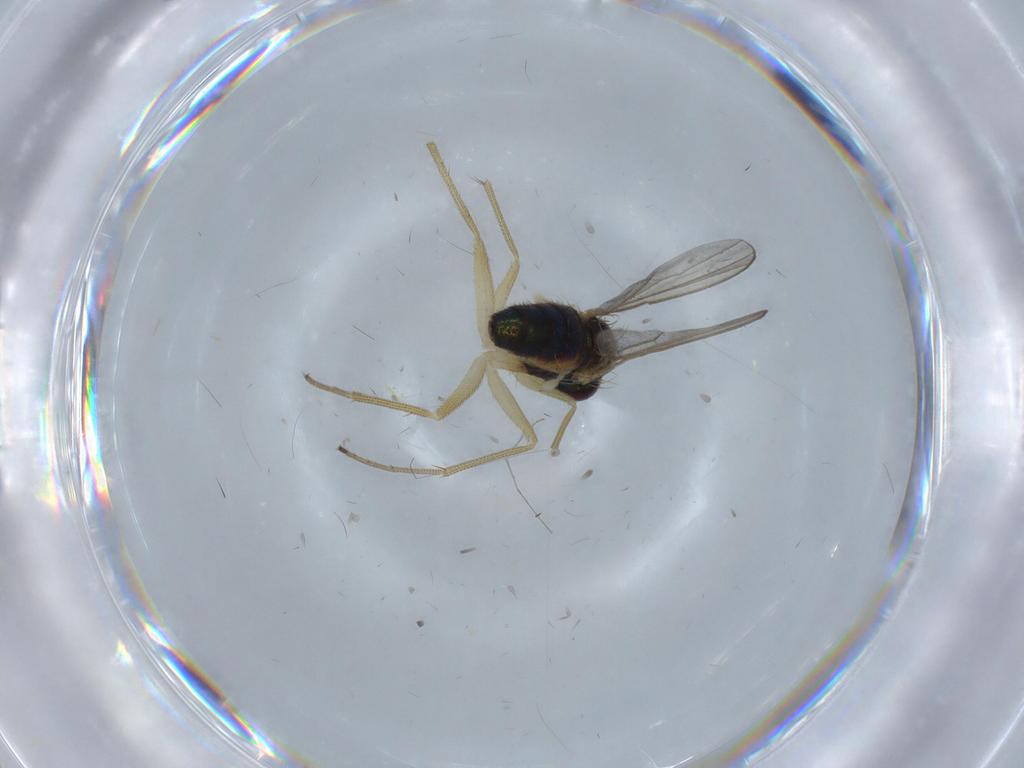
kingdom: Animalia
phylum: Arthropoda
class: Insecta
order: Diptera
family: Dolichopodidae
